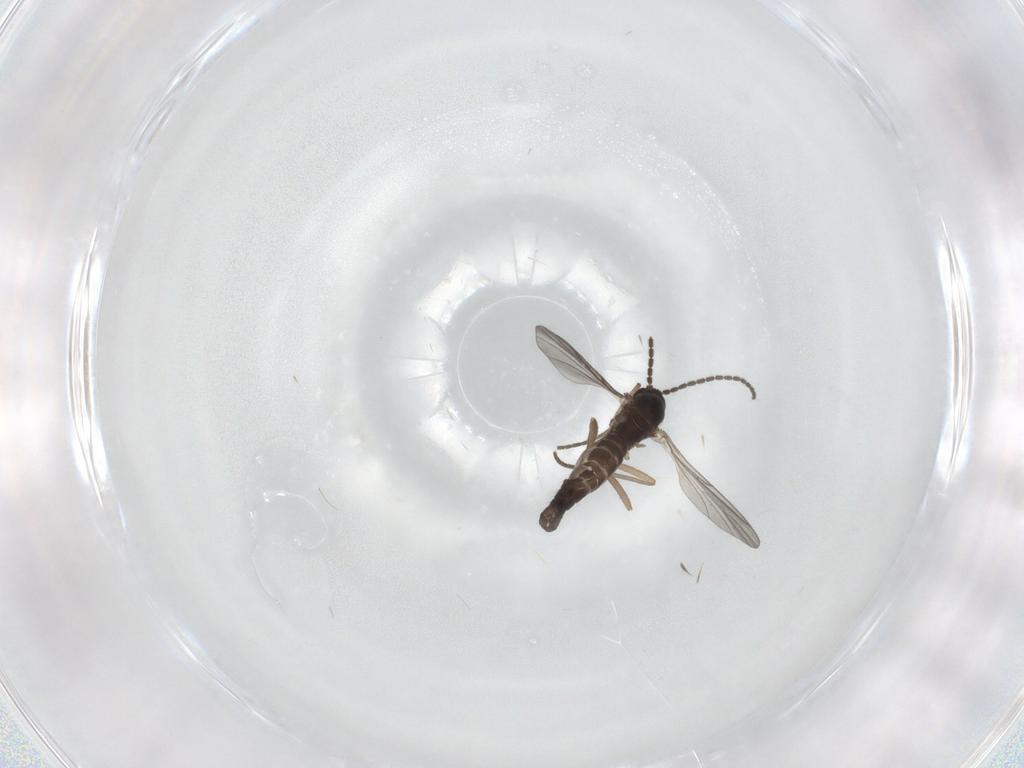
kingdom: Animalia
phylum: Arthropoda
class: Insecta
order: Diptera
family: Sciaridae
